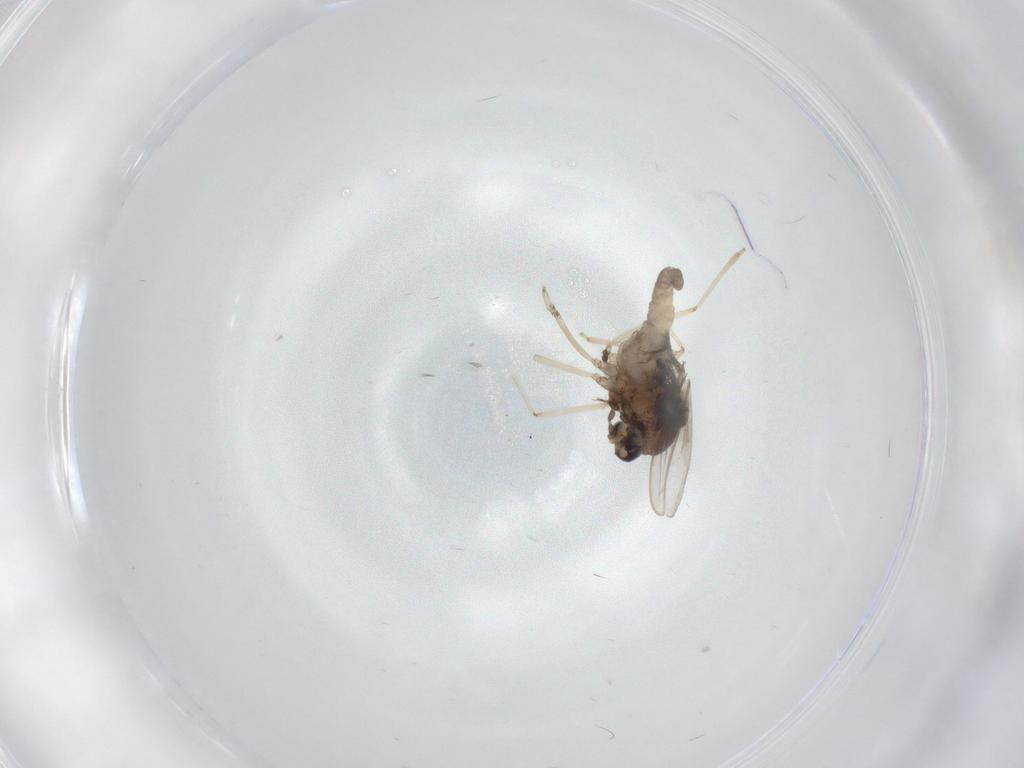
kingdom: Animalia
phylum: Arthropoda
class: Insecta
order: Diptera
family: Cecidomyiidae
